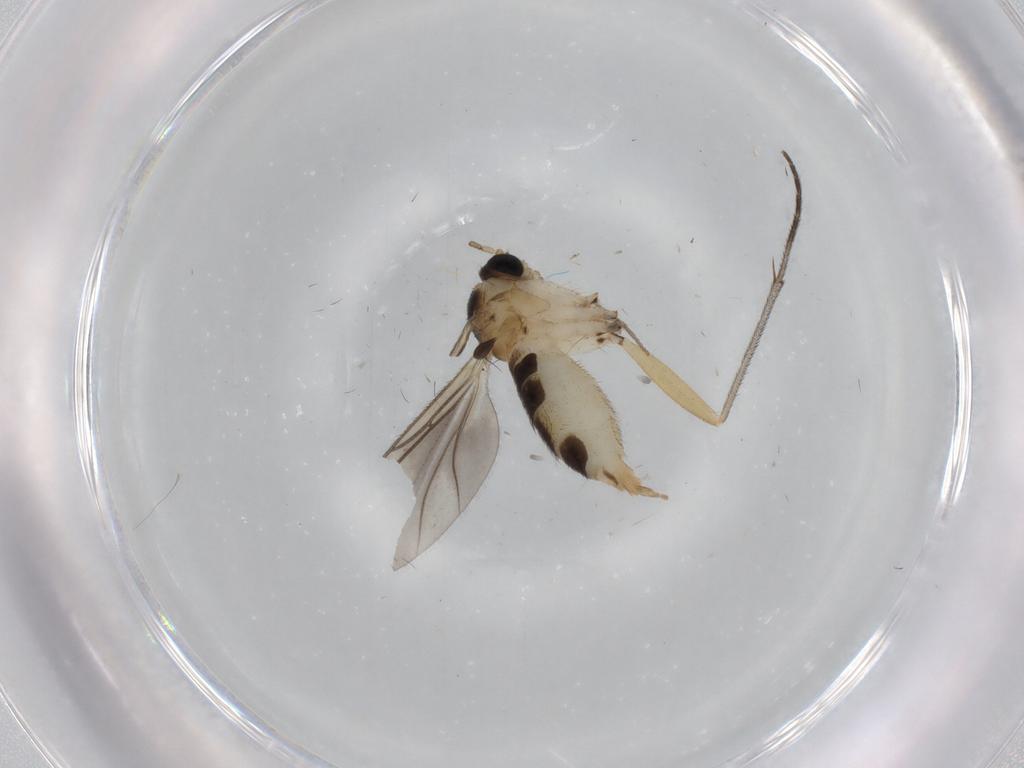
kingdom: Animalia
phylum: Arthropoda
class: Insecta
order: Diptera
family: Sciaridae
